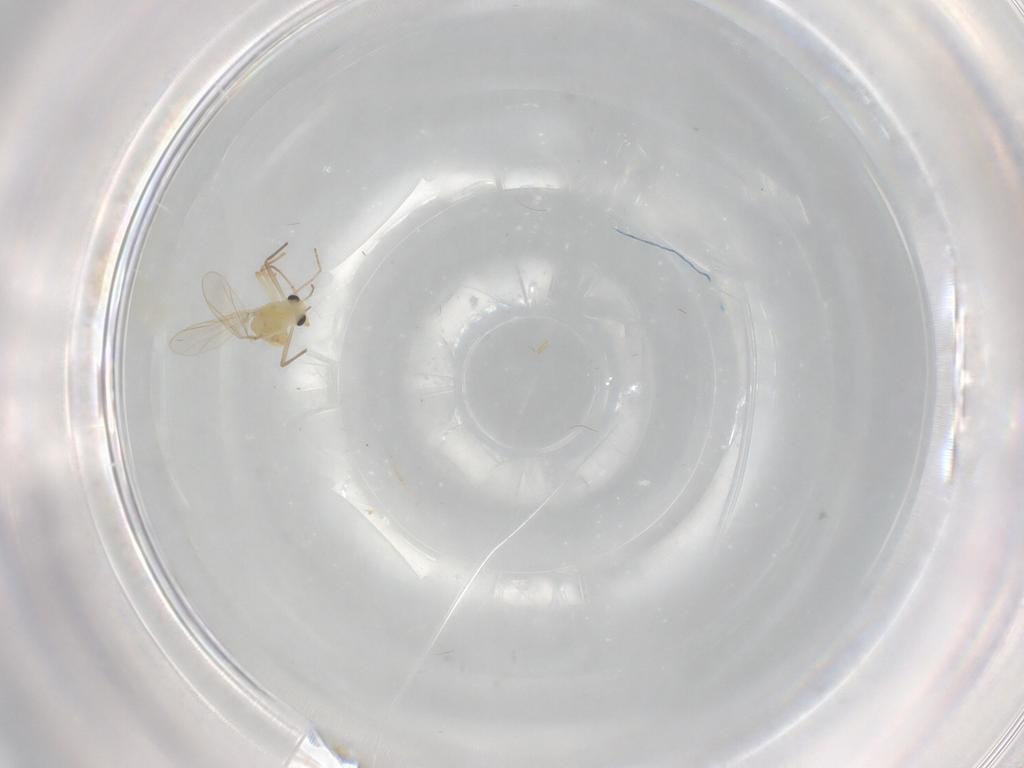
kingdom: Animalia
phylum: Arthropoda
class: Insecta
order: Diptera
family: Chironomidae
